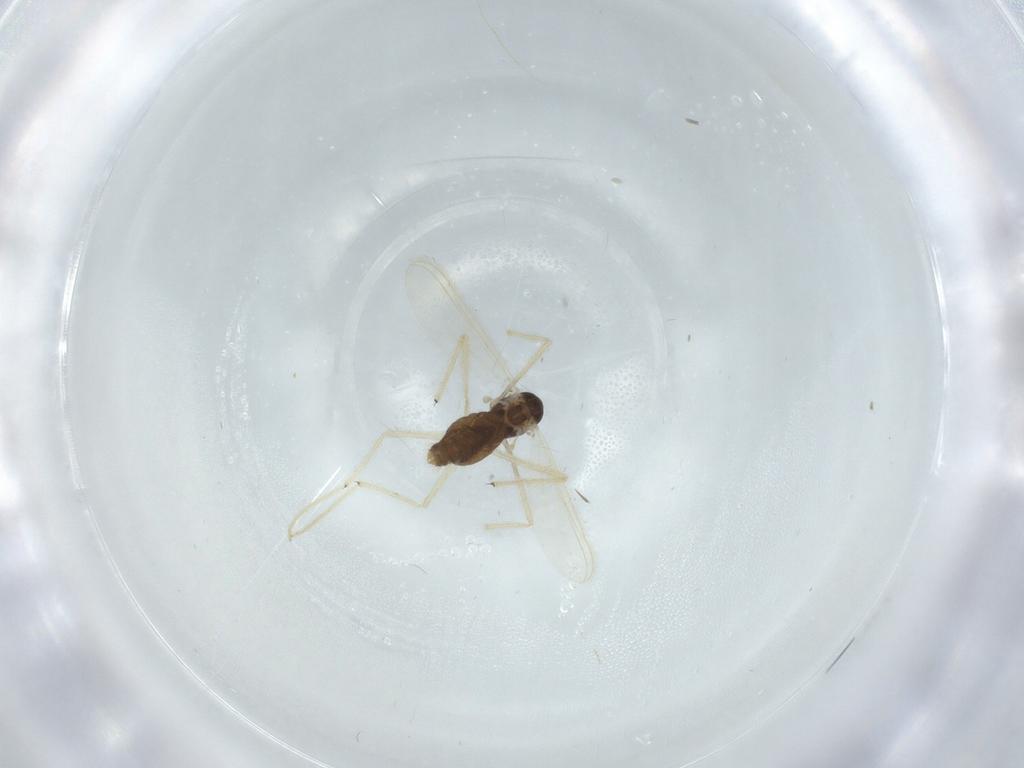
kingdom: Animalia
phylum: Arthropoda
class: Insecta
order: Diptera
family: Chironomidae
